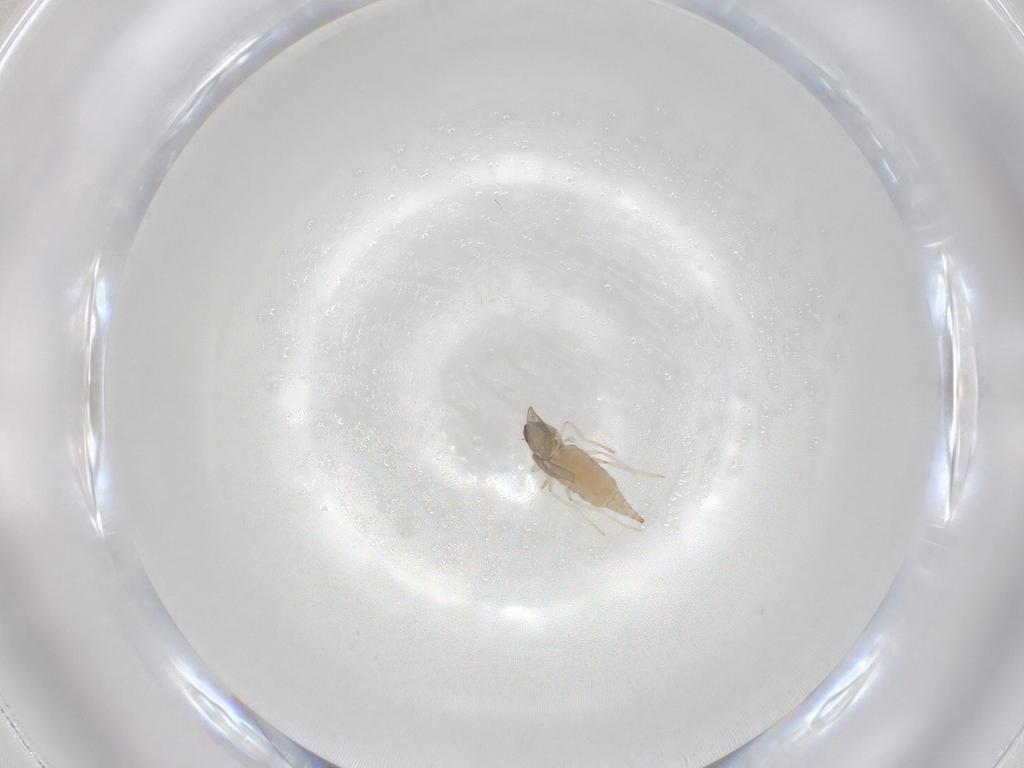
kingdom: Animalia
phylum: Arthropoda
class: Insecta
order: Diptera
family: Cecidomyiidae
